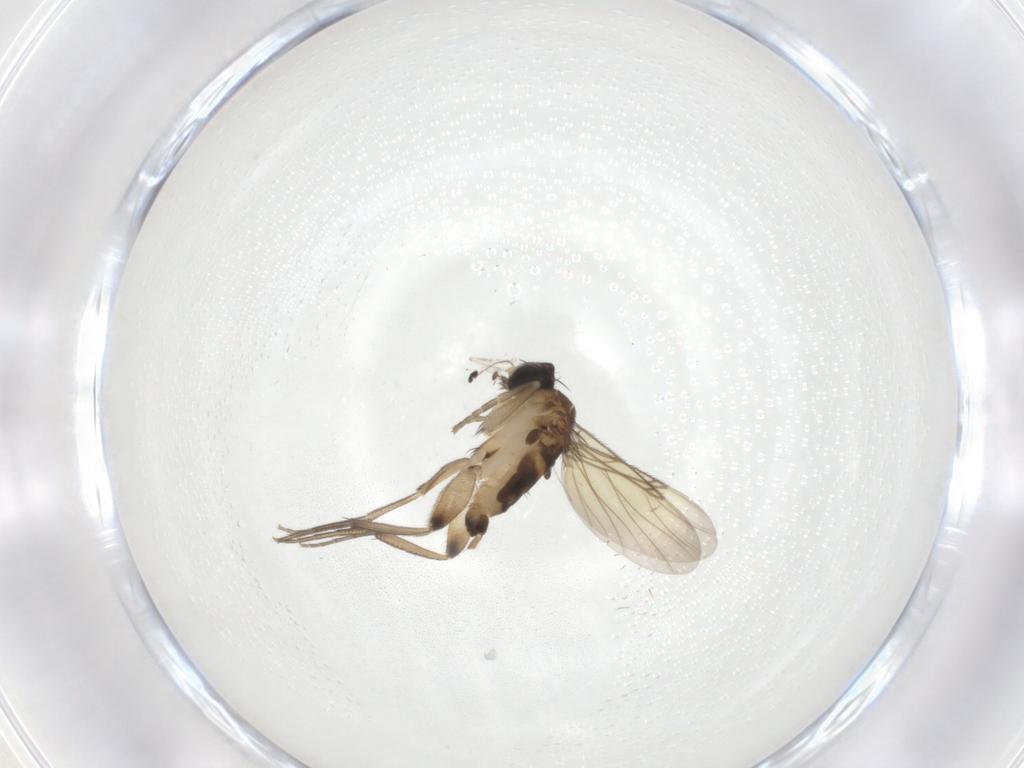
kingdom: Animalia
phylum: Arthropoda
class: Insecta
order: Diptera
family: Phoridae
